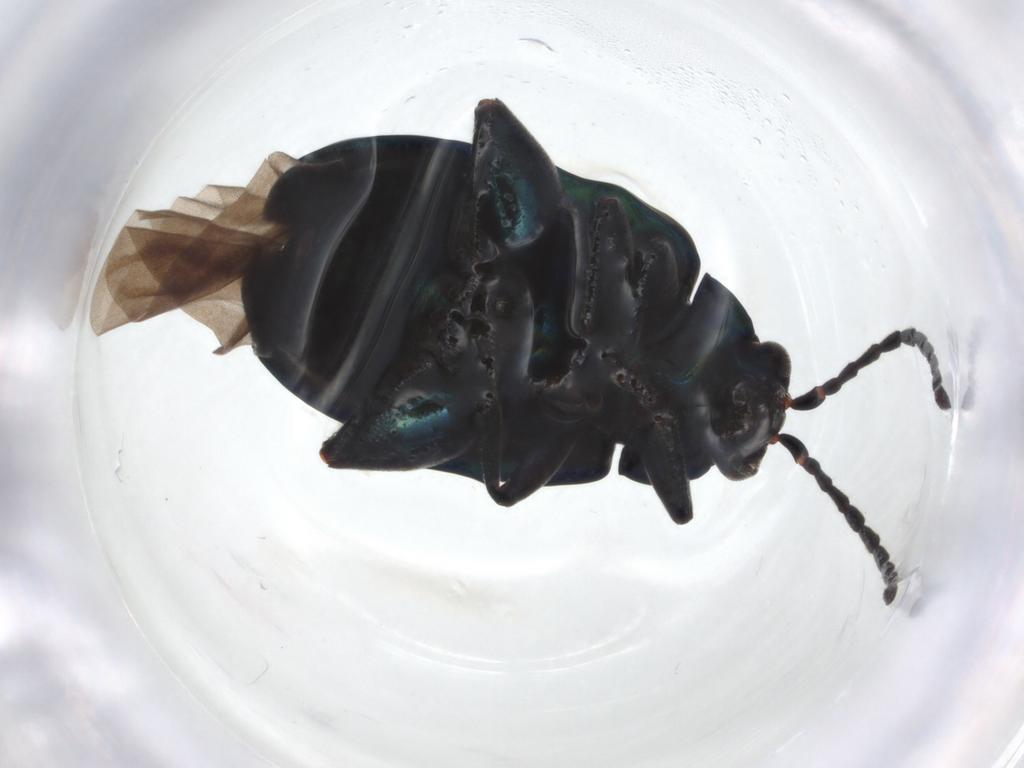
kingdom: Animalia
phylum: Arthropoda
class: Insecta
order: Coleoptera
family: Chrysomelidae
